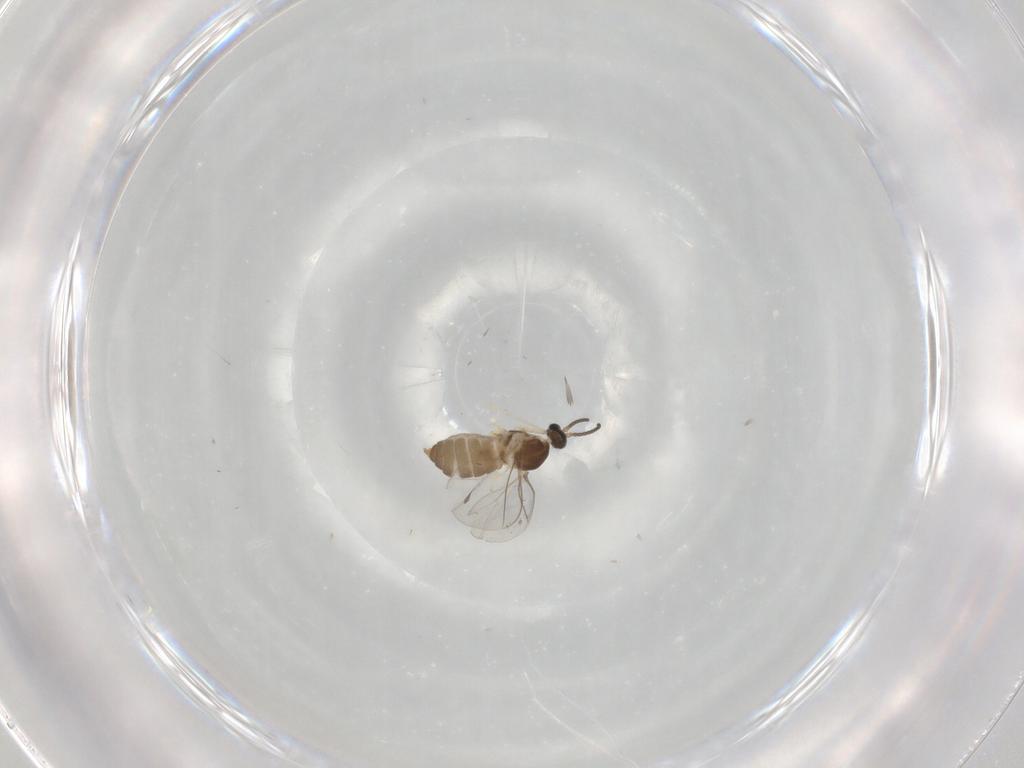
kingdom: Animalia
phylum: Arthropoda
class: Insecta
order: Diptera
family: Cecidomyiidae
